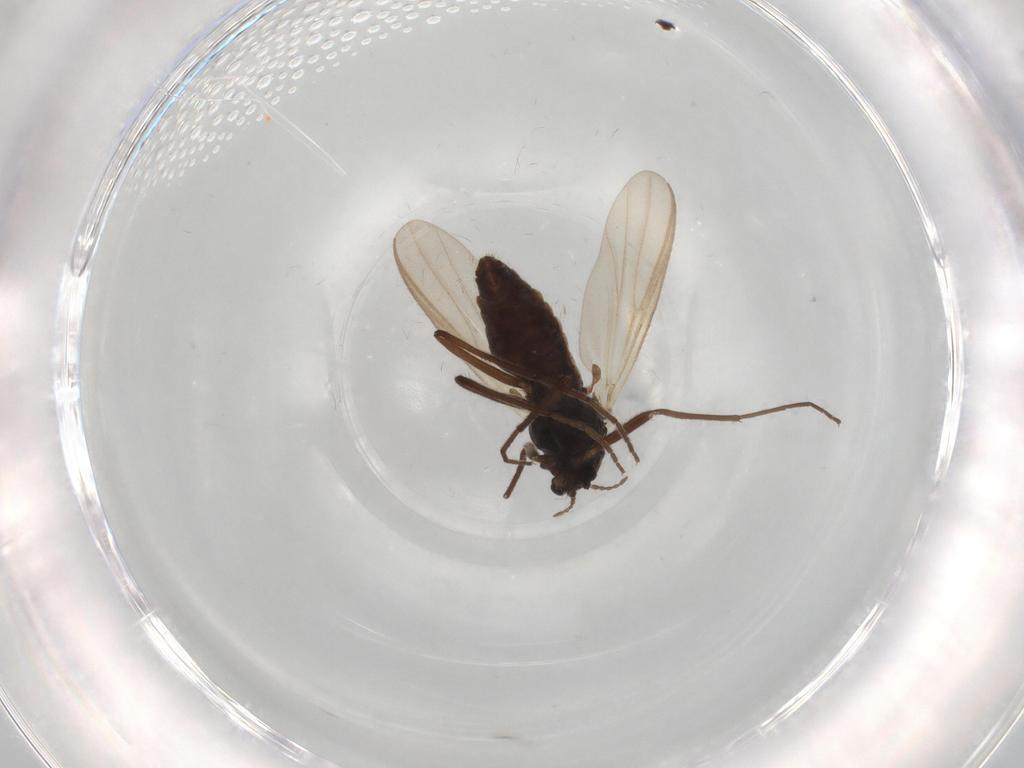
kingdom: Animalia
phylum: Arthropoda
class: Insecta
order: Diptera
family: Chironomidae
